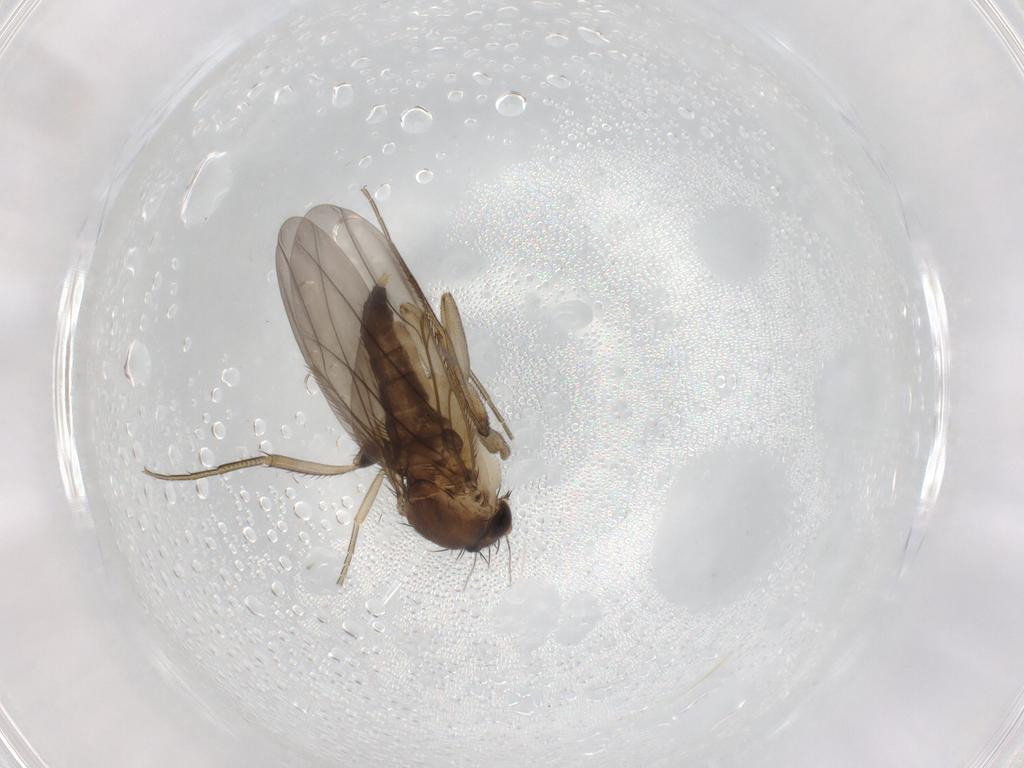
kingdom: Animalia
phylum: Arthropoda
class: Insecta
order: Diptera
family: Phoridae
